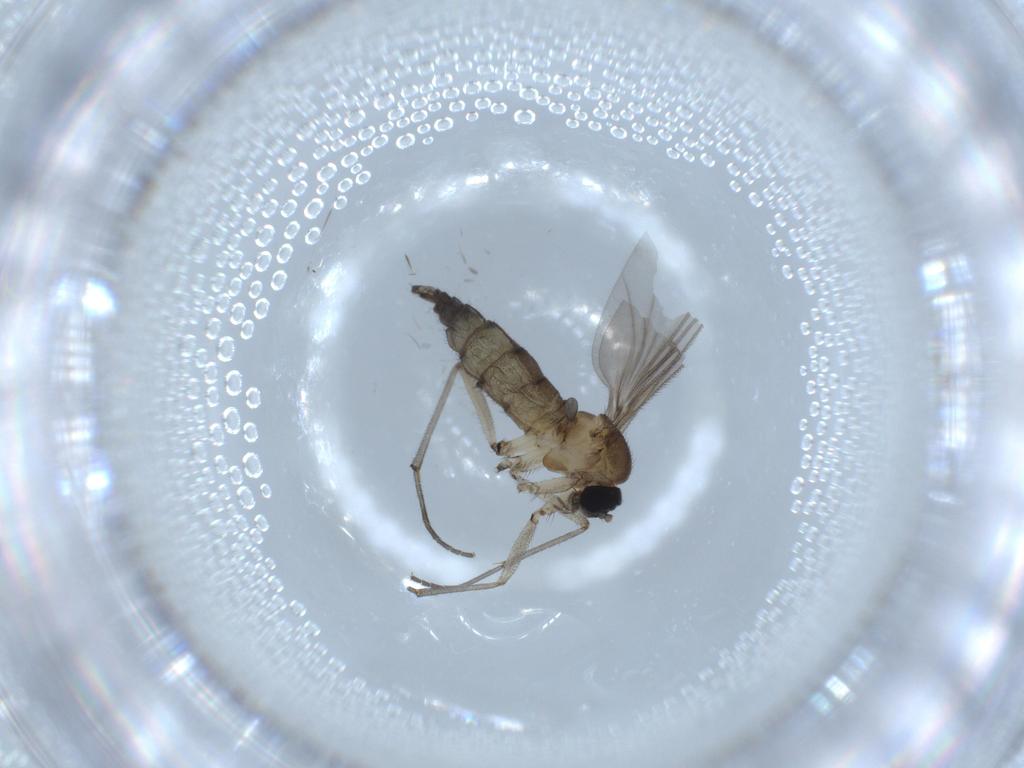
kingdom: Animalia
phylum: Arthropoda
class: Insecta
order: Diptera
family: Sciaridae
